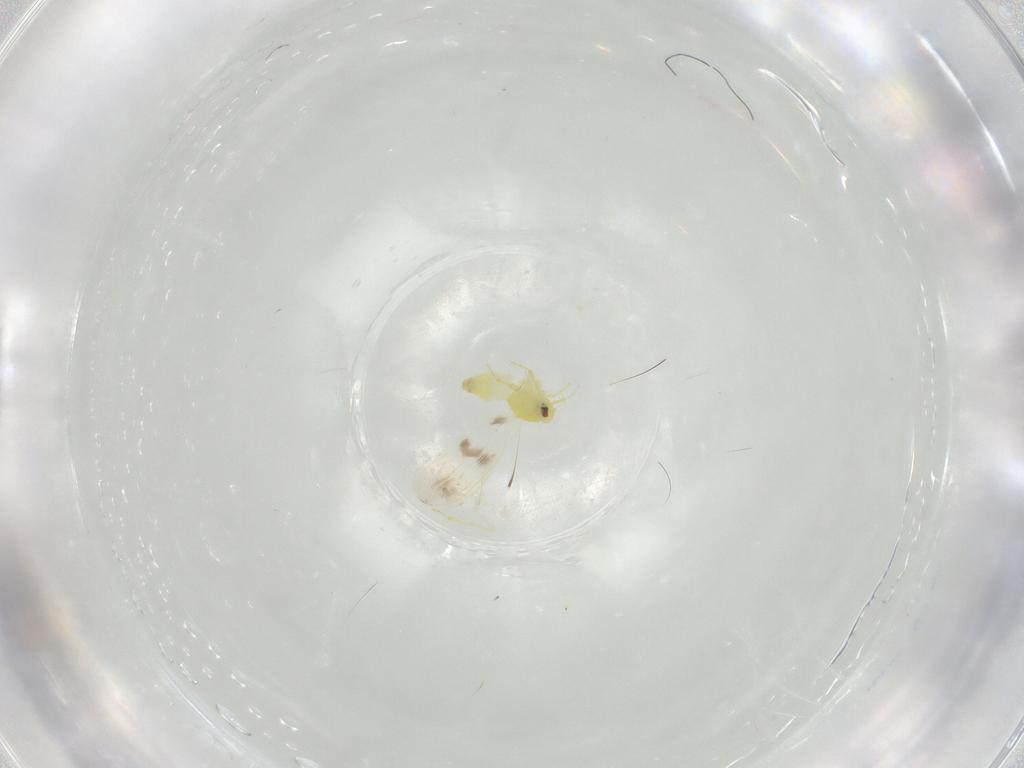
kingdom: Animalia
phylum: Arthropoda
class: Insecta
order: Hemiptera
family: Aleyrodidae
